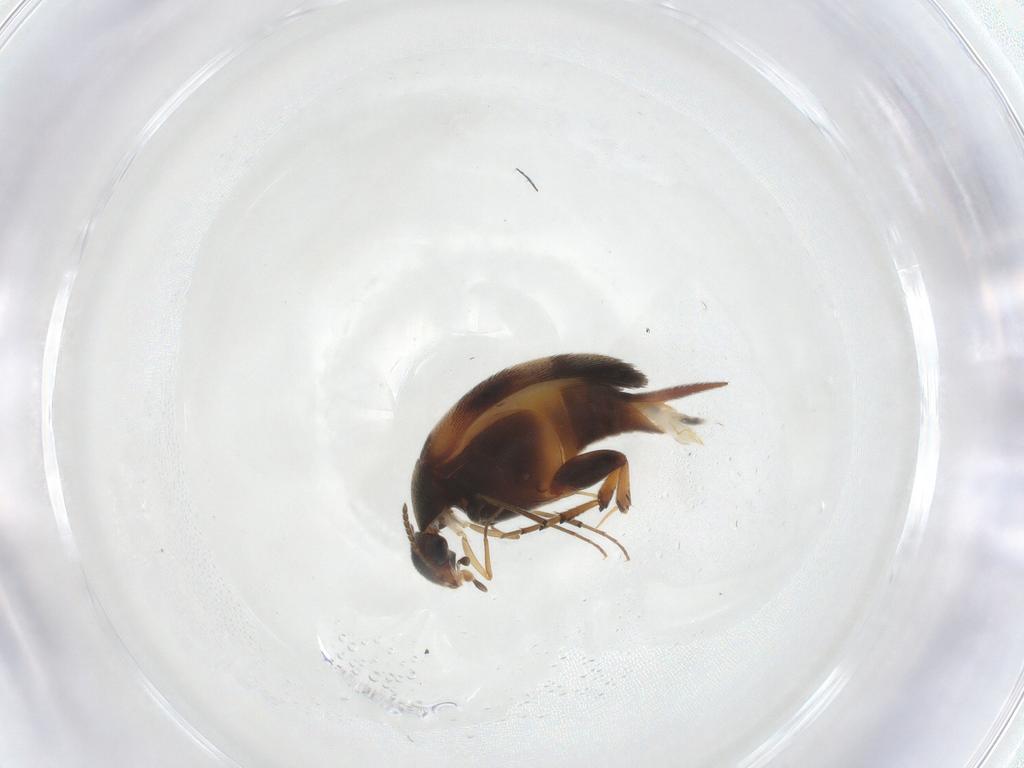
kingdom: Animalia
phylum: Arthropoda
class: Insecta
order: Coleoptera
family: Mordellidae
